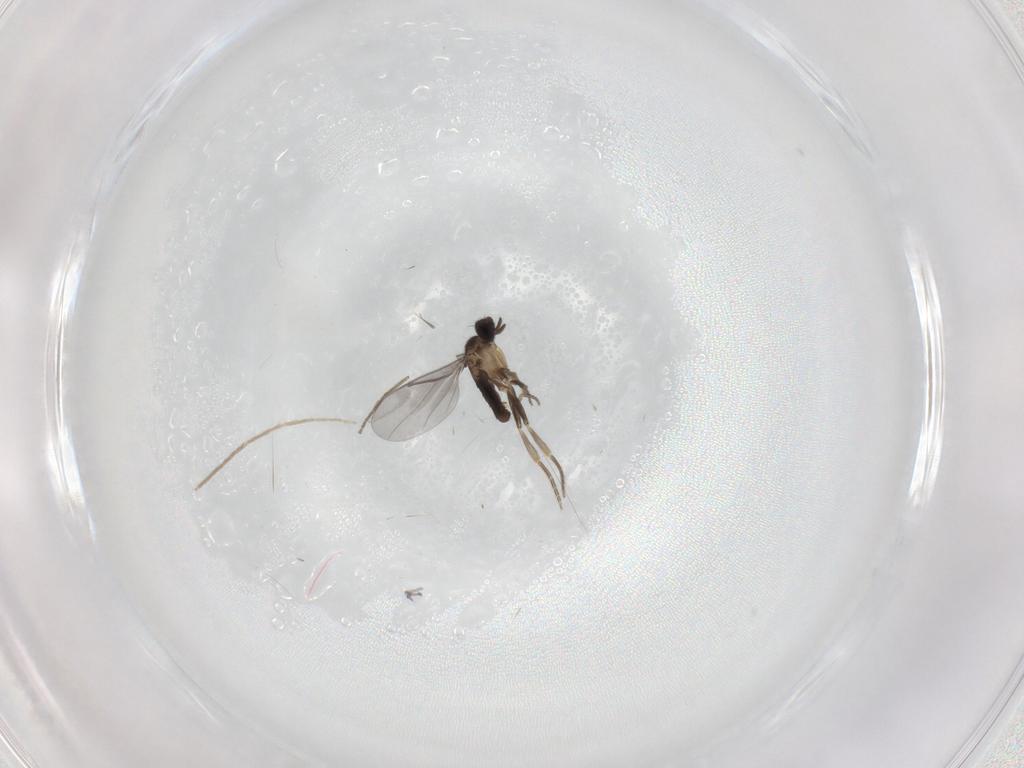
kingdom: Animalia
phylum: Arthropoda
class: Insecta
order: Diptera
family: Chironomidae
